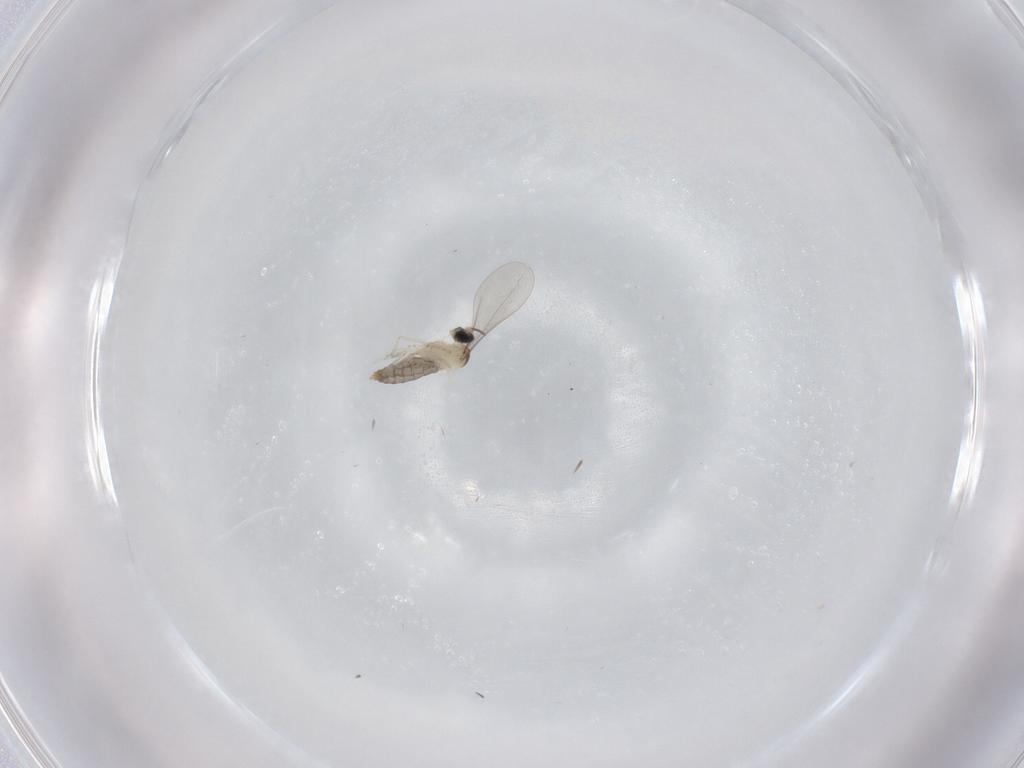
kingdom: Animalia
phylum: Arthropoda
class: Insecta
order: Diptera
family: Cecidomyiidae
